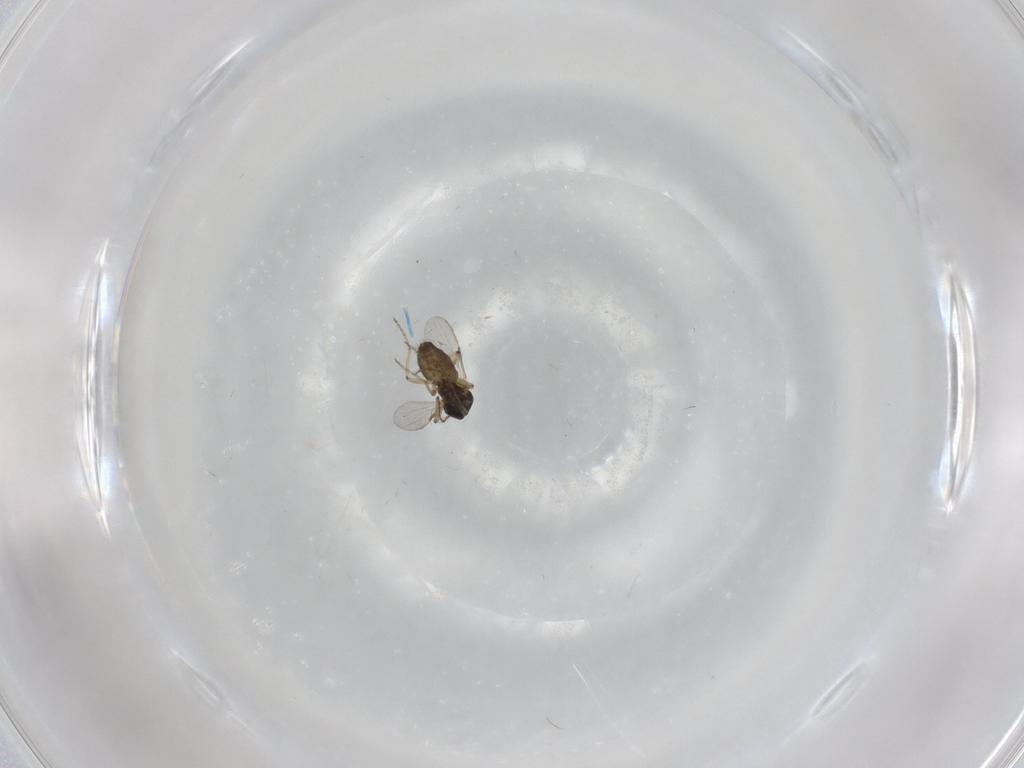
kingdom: Animalia
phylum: Arthropoda
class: Insecta
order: Diptera
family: Ceratopogonidae
